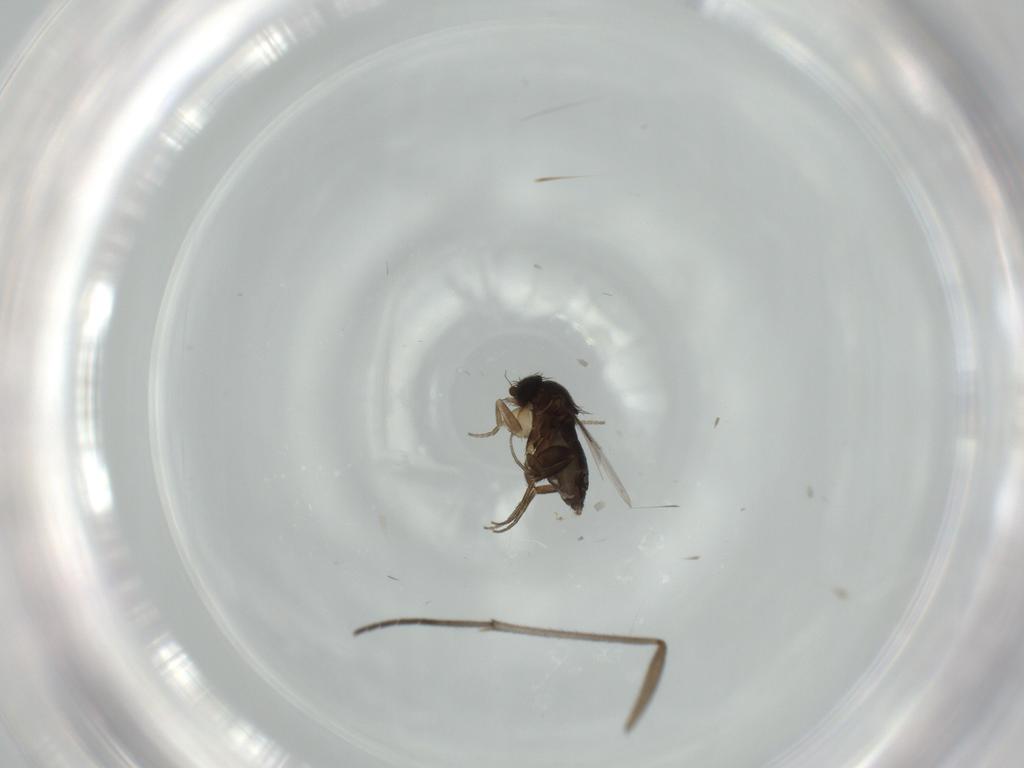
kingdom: Animalia
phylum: Arthropoda
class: Insecta
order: Diptera
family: Sciaridae
